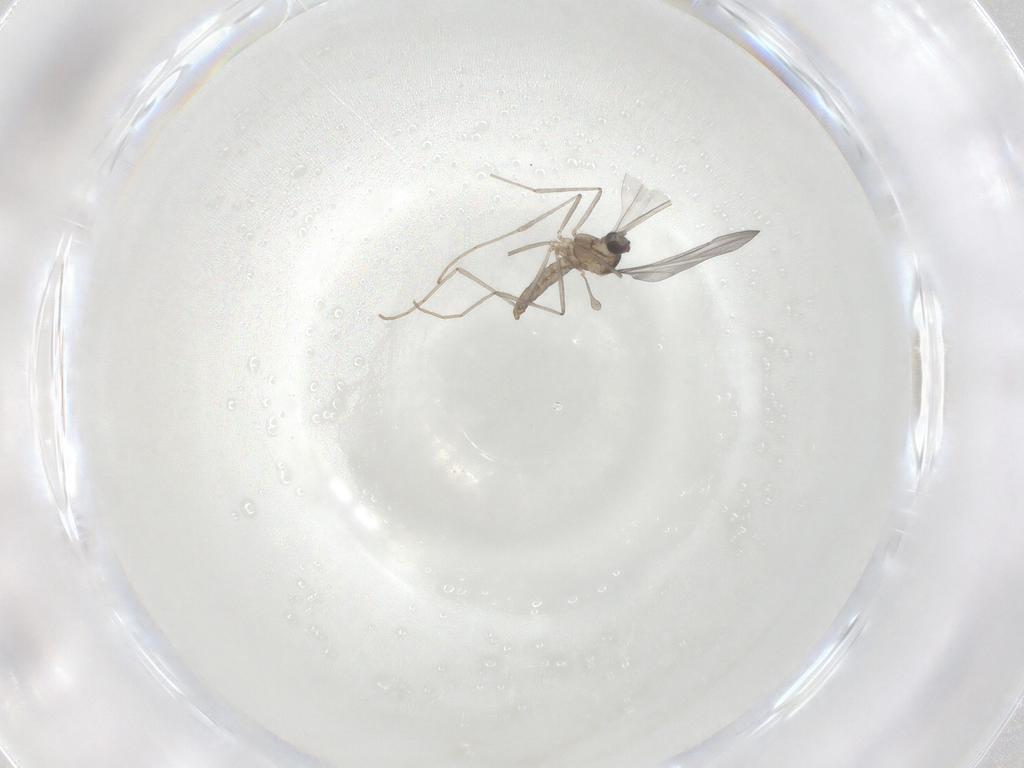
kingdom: Animalia
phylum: Arthropoda
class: Insecta
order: Diptera
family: Cecidomyiidae
